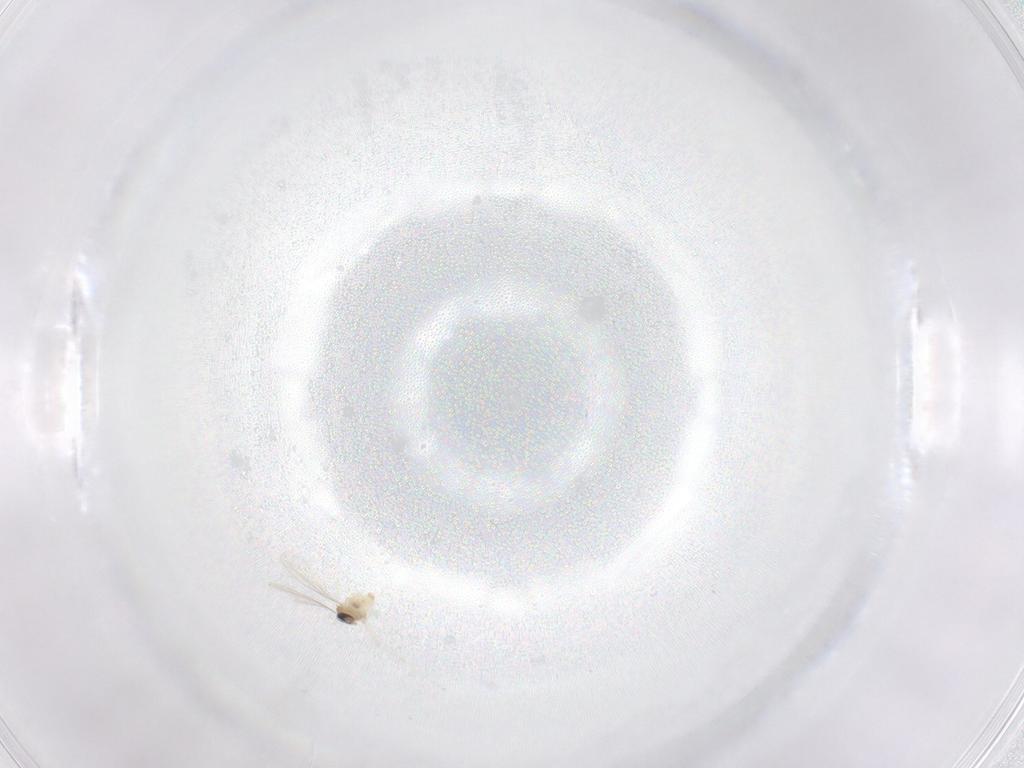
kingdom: Animalia
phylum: Arthropoda
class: Insecta
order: Diptera
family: Cecidomyiidae
